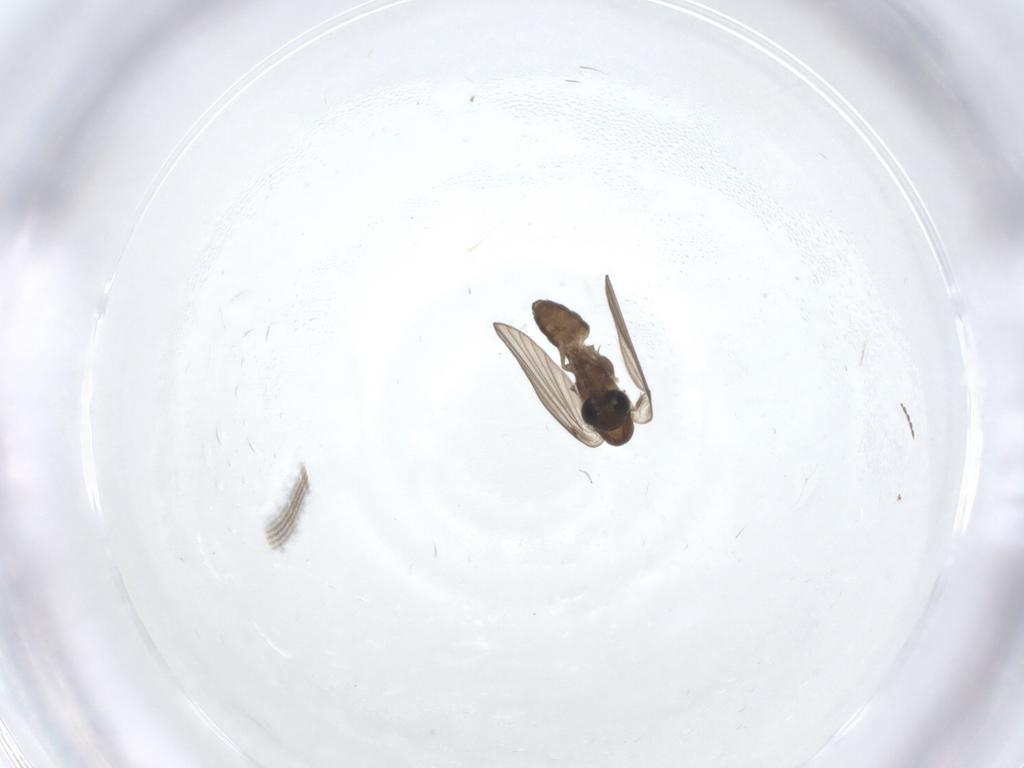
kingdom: Animalia
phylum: Arthropoda
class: Insecta
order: Diptera
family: Psychodidae
